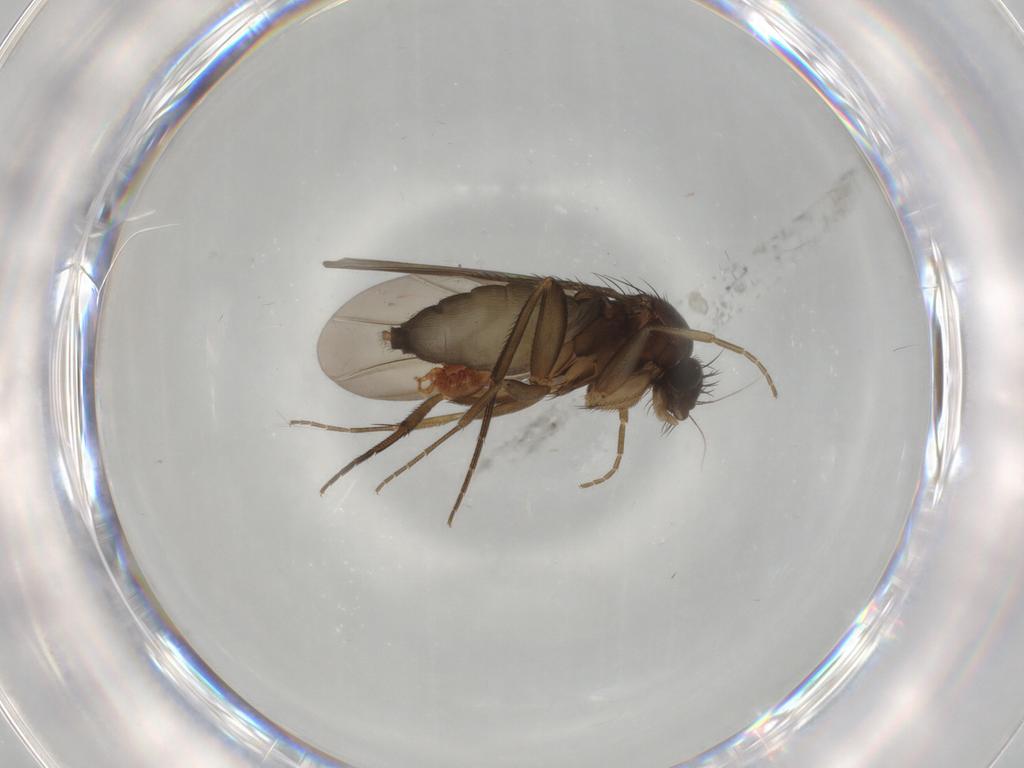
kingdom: Animalia
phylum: Arthropoda
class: Insecta
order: Diptera
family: Phoridae
